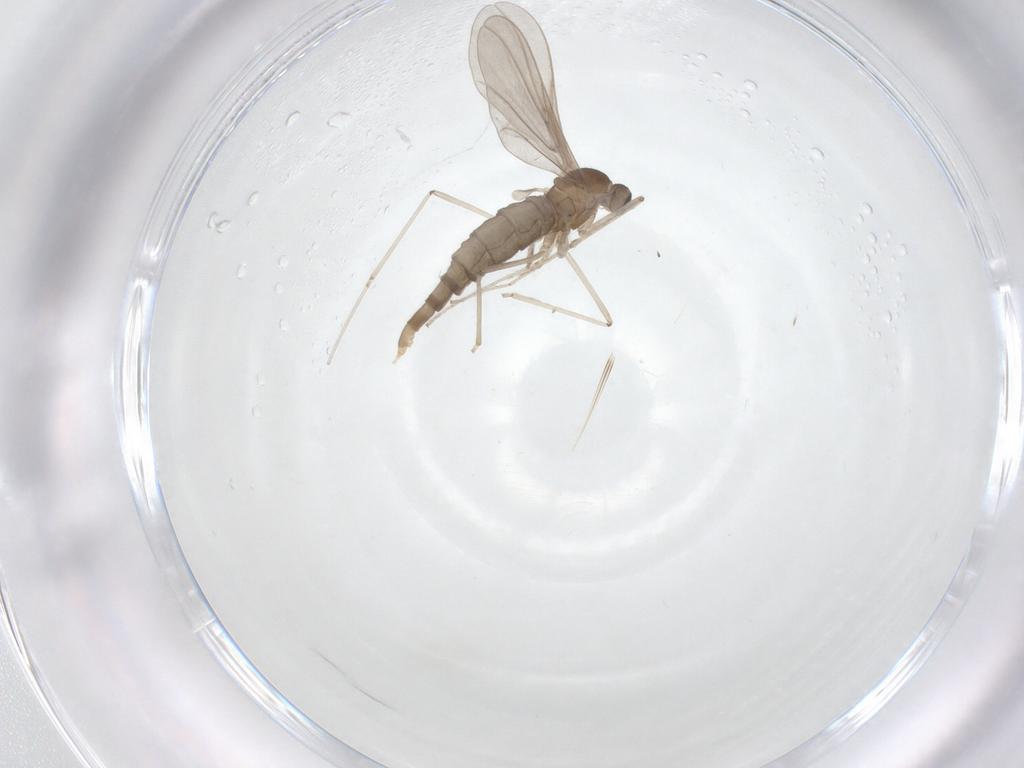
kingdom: Animalia
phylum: Arthropoda
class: Insecta
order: Diptera
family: Cecidomyiidae
